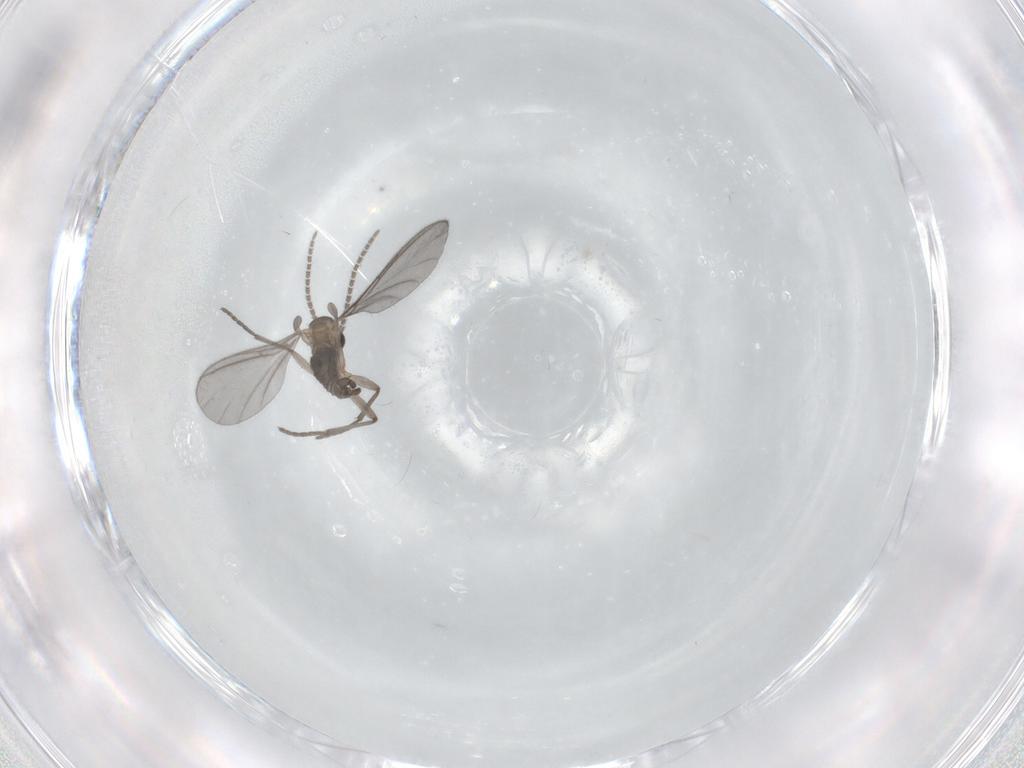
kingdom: Animalia
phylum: Arthropoda
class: Insecta
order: Diptera
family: Sciaridae
